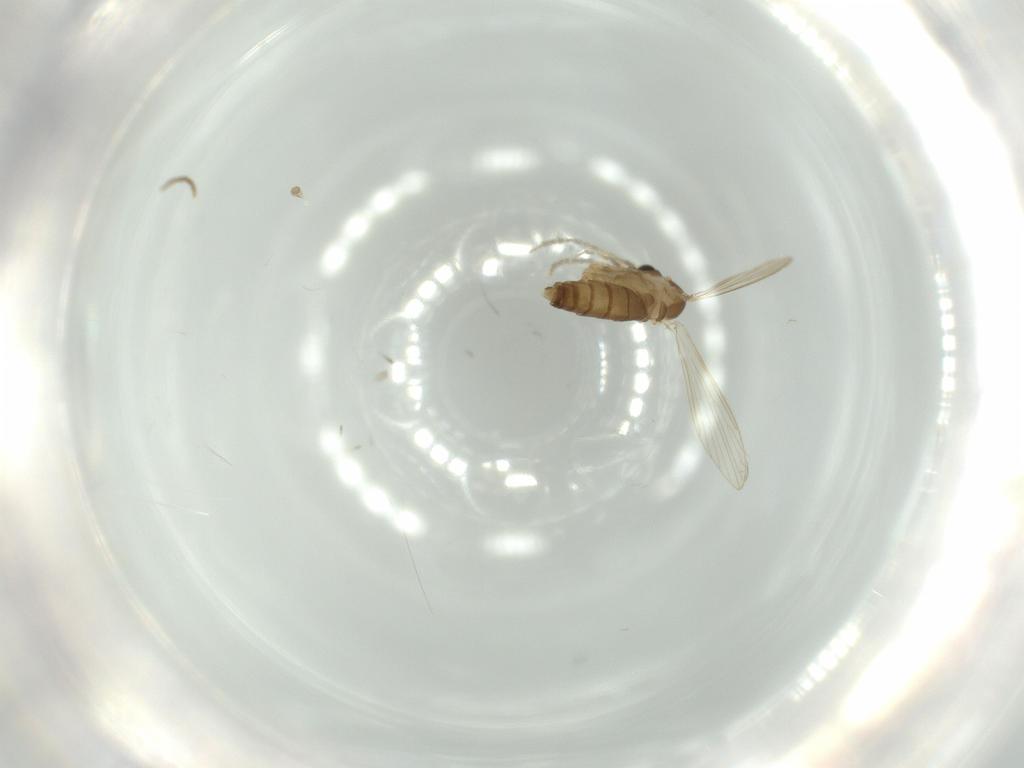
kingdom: Animalia
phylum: Arthropoda
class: Insecta
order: Diptera
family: Psychodidae
